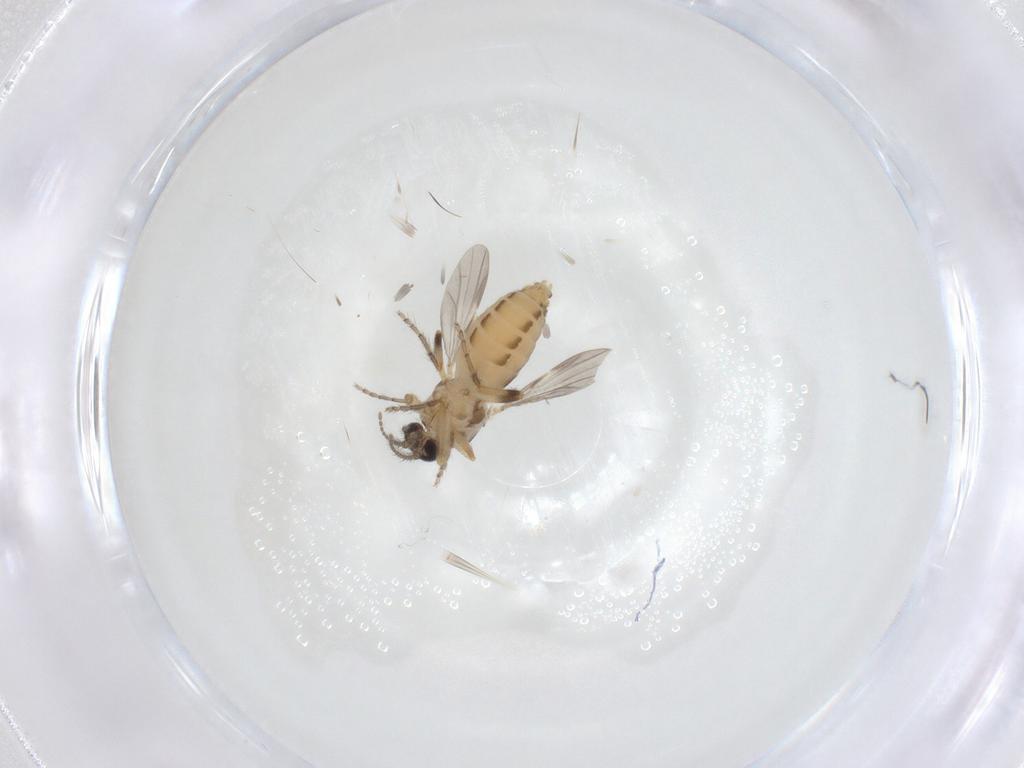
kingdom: Animalia
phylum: Arthropoda
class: Insecta
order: Diptera
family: Sciaridae
